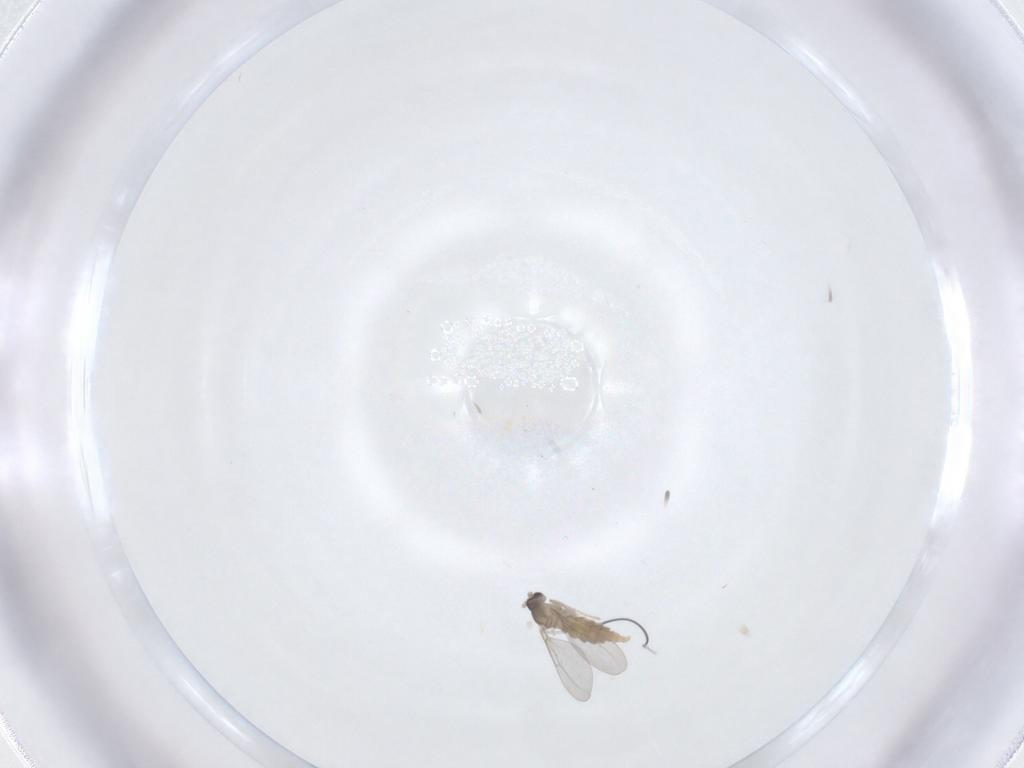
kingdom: Animalia
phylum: Arthropoda
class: Insecta
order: Diptera
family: Cecidomyiidae
